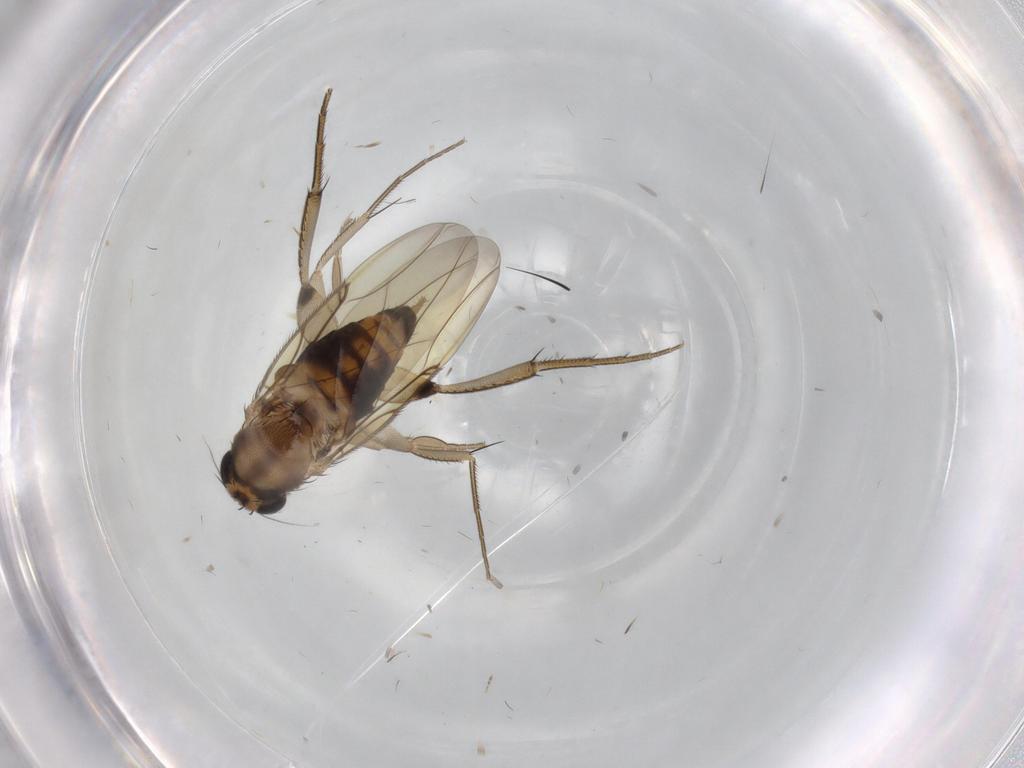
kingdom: Animalia
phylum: Arthropoda
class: Insecta
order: Diptera
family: Phoridae
